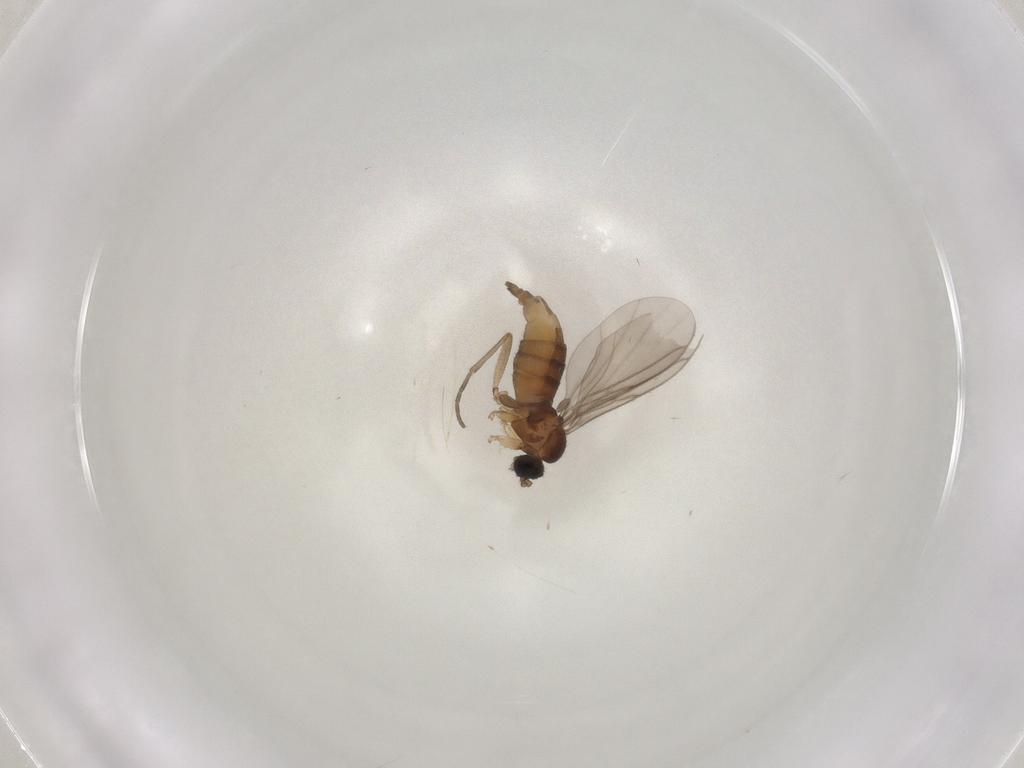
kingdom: Animalia
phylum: Arthropoda
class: Insecta
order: Diptera
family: Sciaridae
